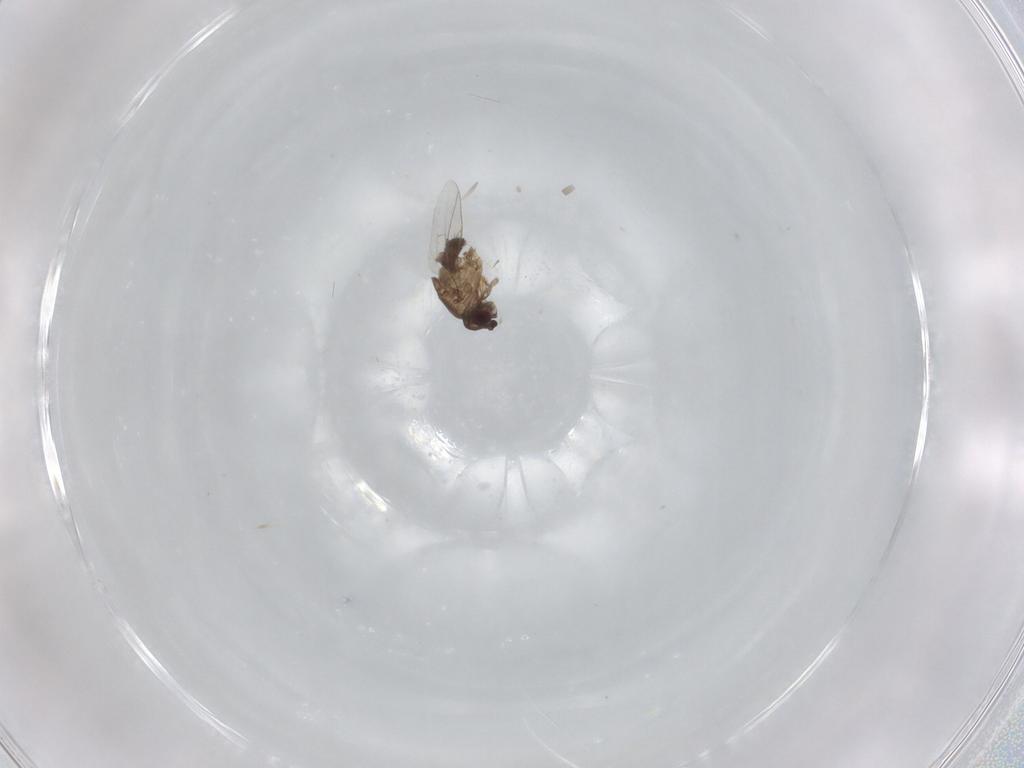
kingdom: Animalia
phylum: Arthropoda
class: Insecta
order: Diptera
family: Sphaeroceridae
